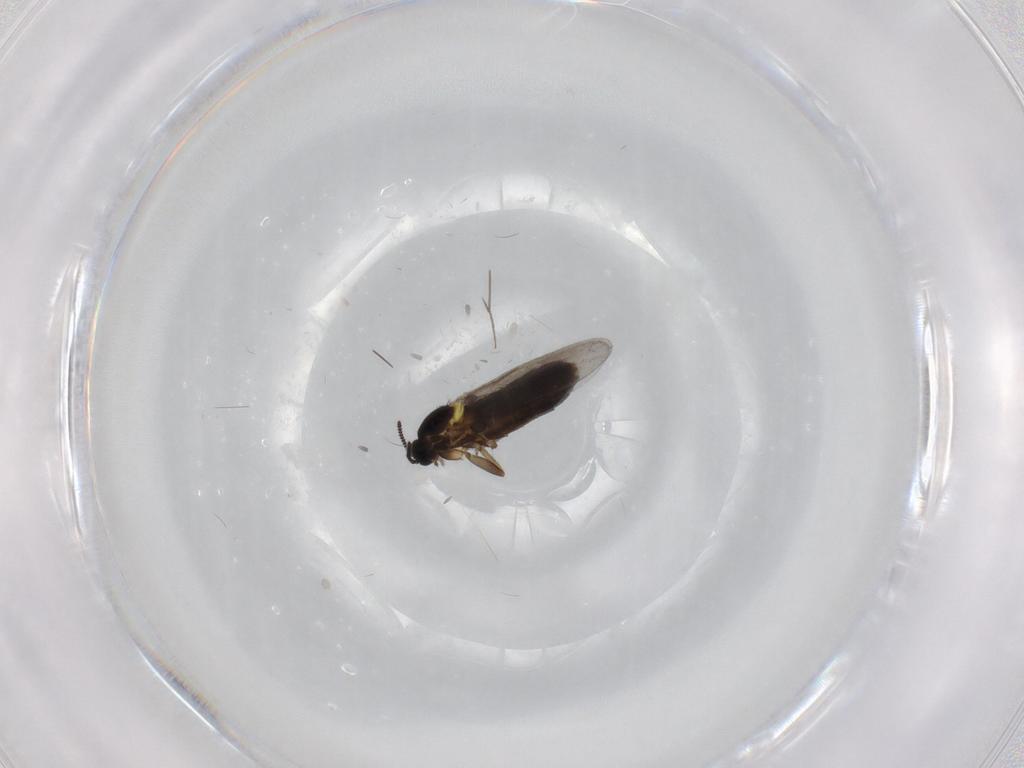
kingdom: Animalia
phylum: Arthropoda
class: Insecta
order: Diptera
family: Scatopsidae
